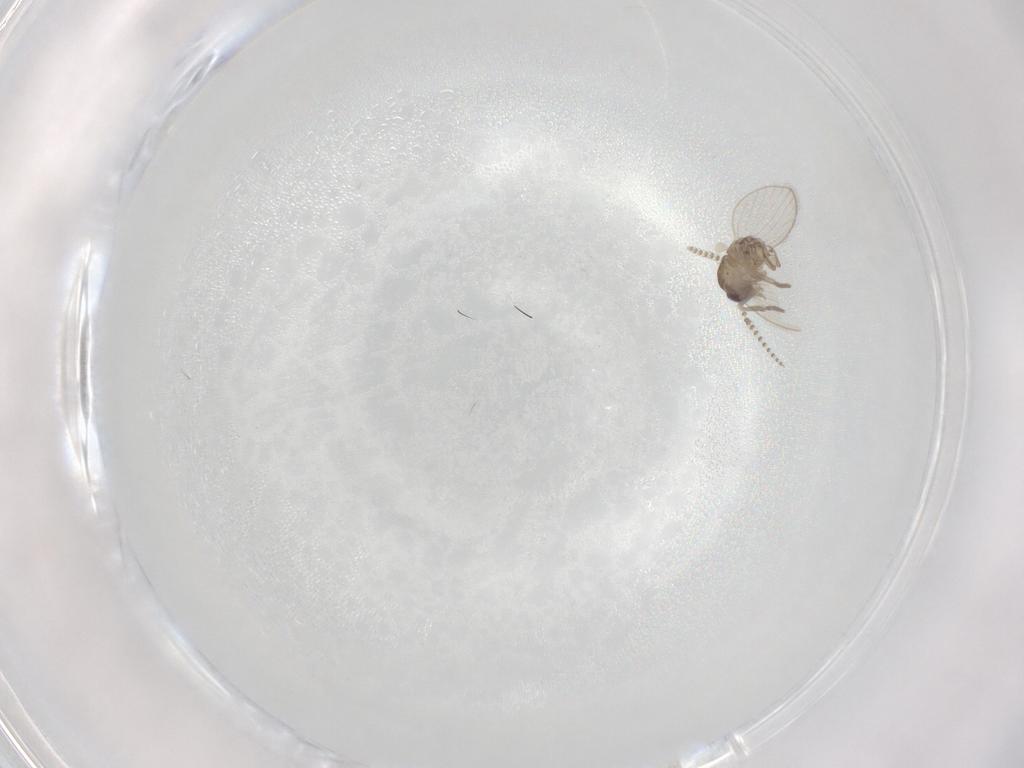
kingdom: Animalia
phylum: Arthropoda
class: Insecta
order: Diptera
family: Psychodidae
